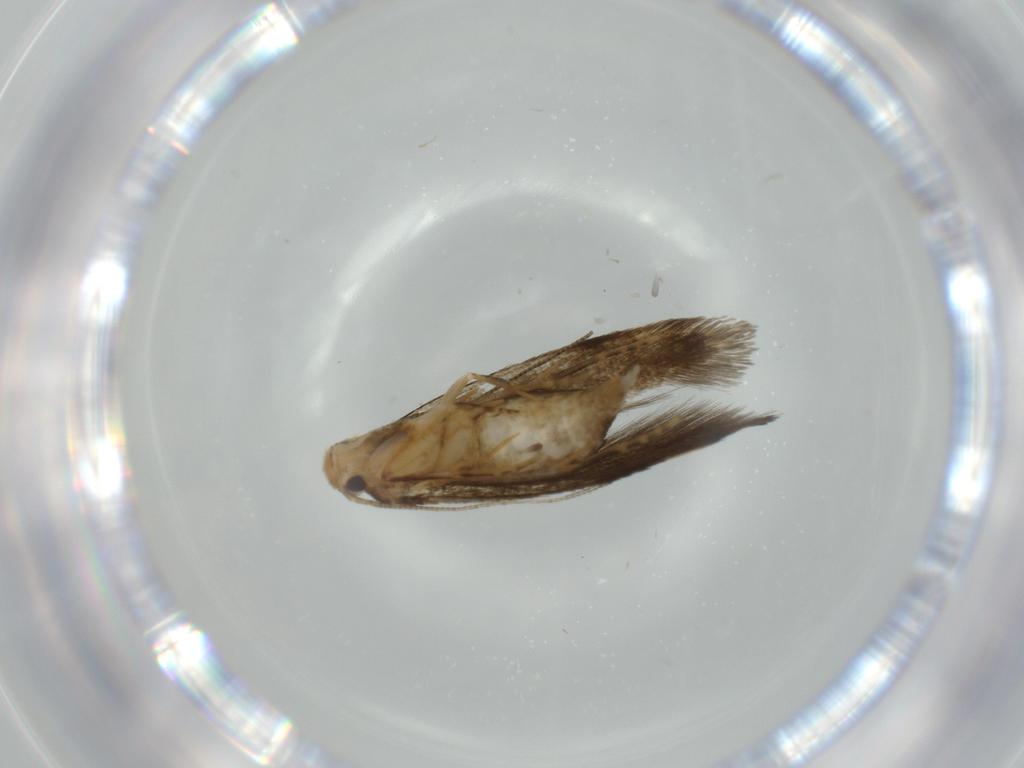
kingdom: Animalia
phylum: Arthropoda
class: Insecta
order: Lepidoptera
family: Tineidae
